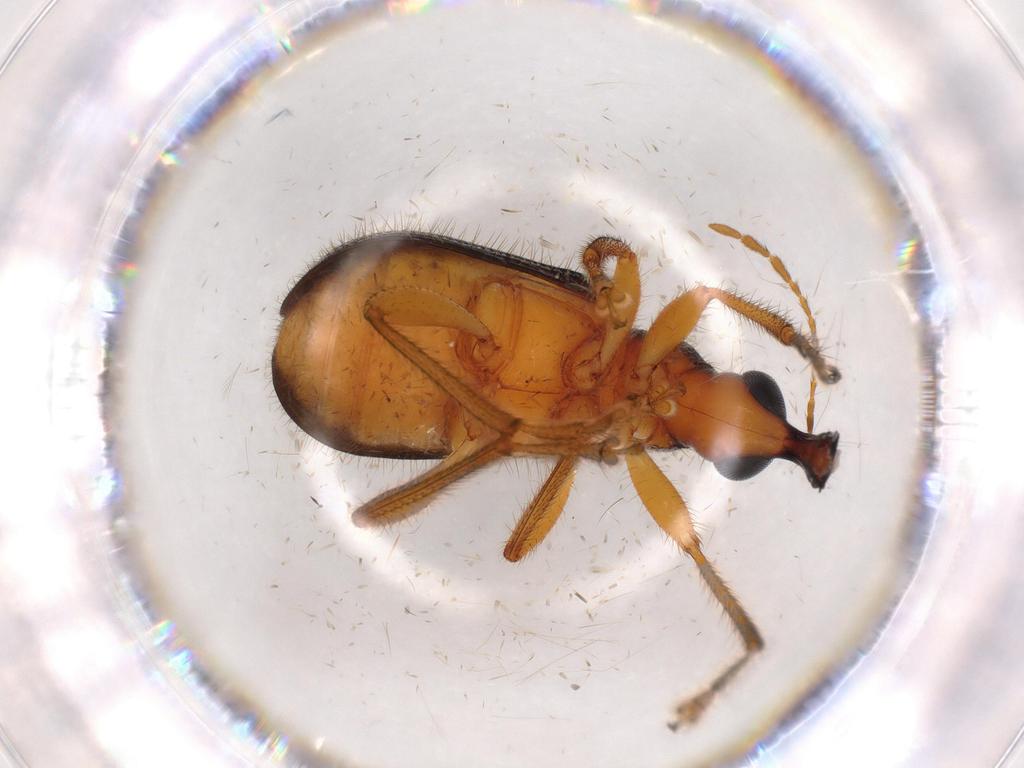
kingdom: Animalia
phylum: Arthropoda
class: Insecta
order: Coleoptera
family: Attelabidae
